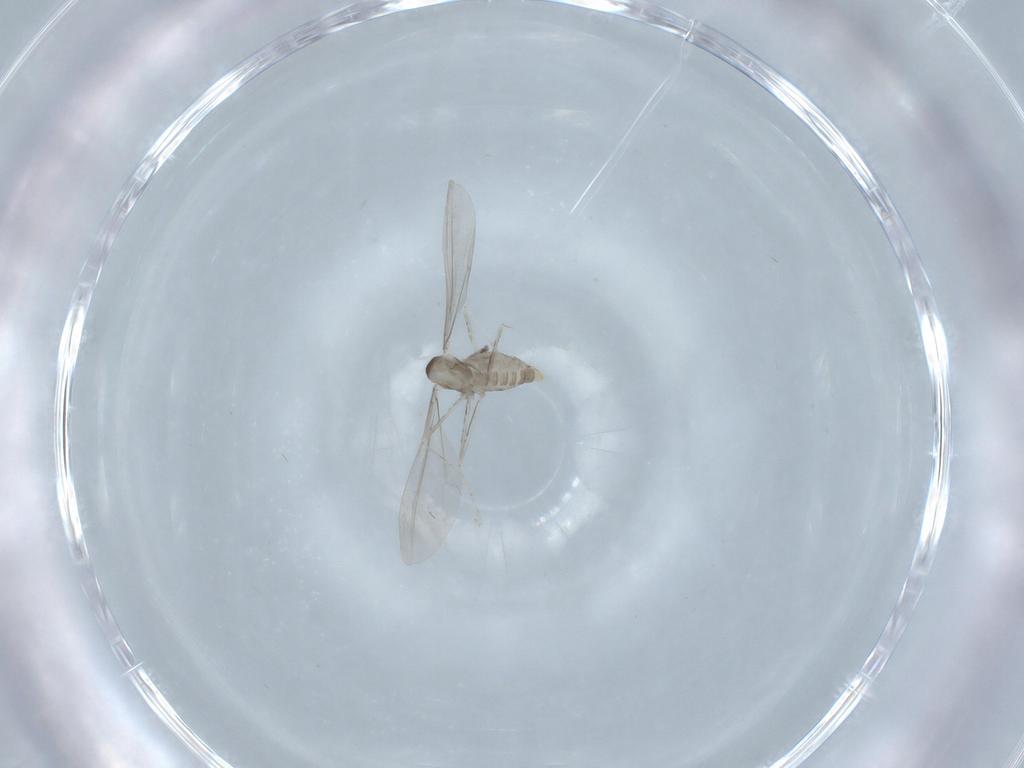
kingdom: Animalia
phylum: Arthropoda
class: Insecta
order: Diptera
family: Cecidomyiidae
